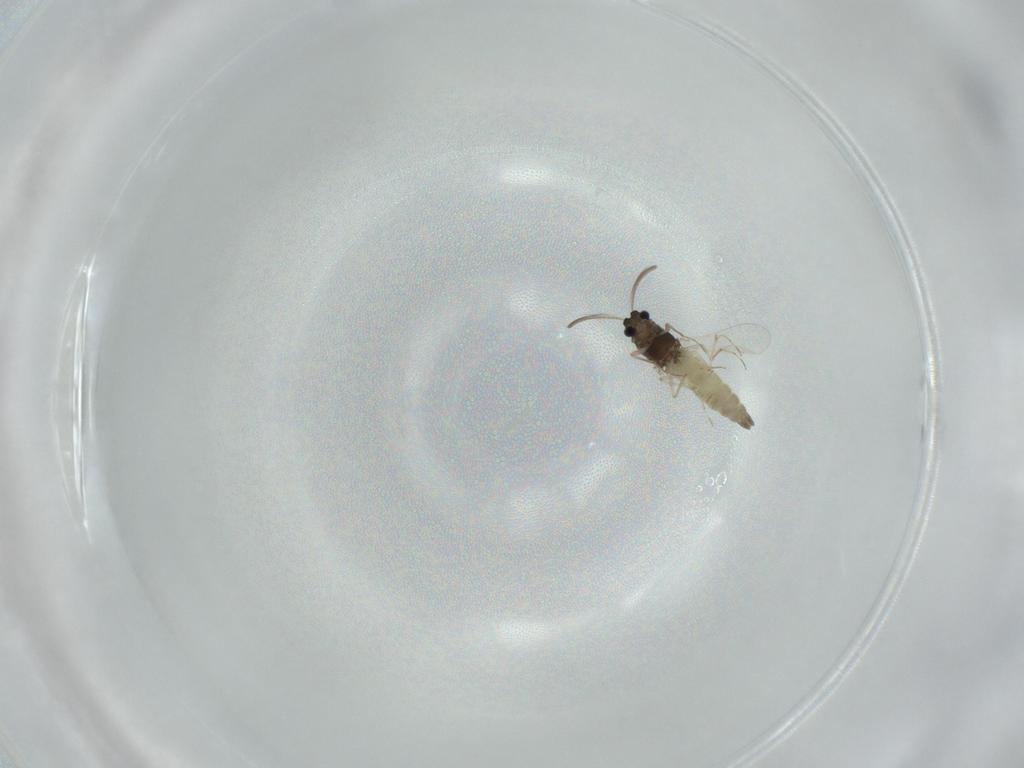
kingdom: Animalia
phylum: Arthropoda
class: Insecta
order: Diptera
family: Chironomidae
